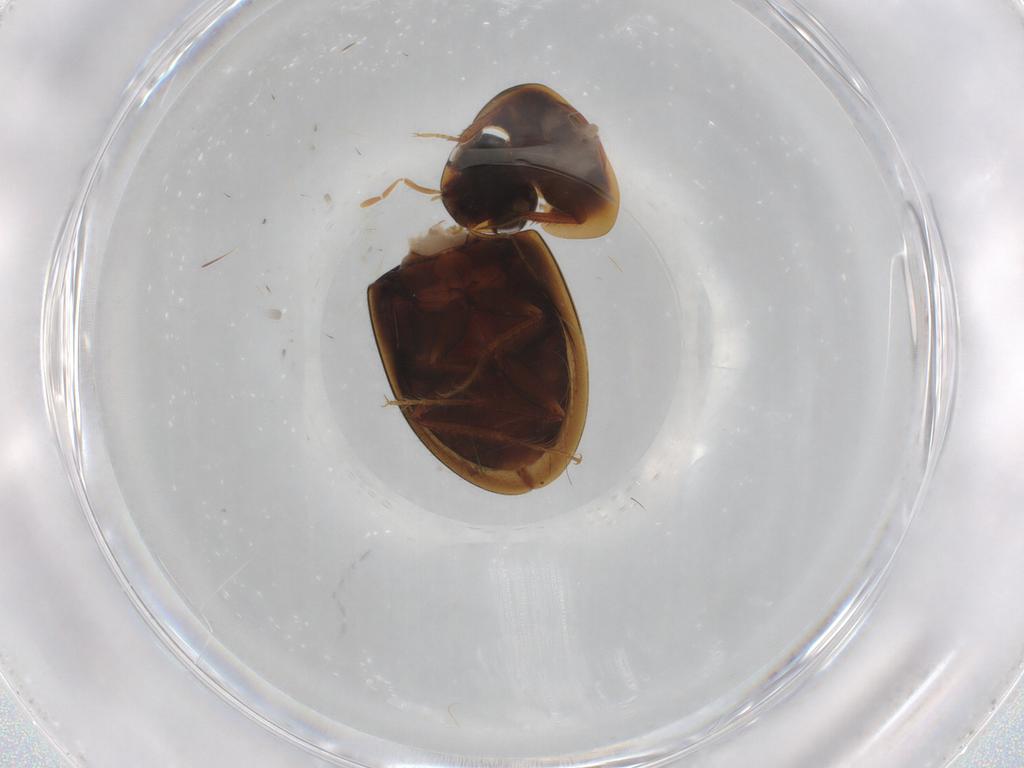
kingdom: Animalia
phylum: Arthropoda
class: Insecta
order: Coleoptera
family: Hydrophilidae
